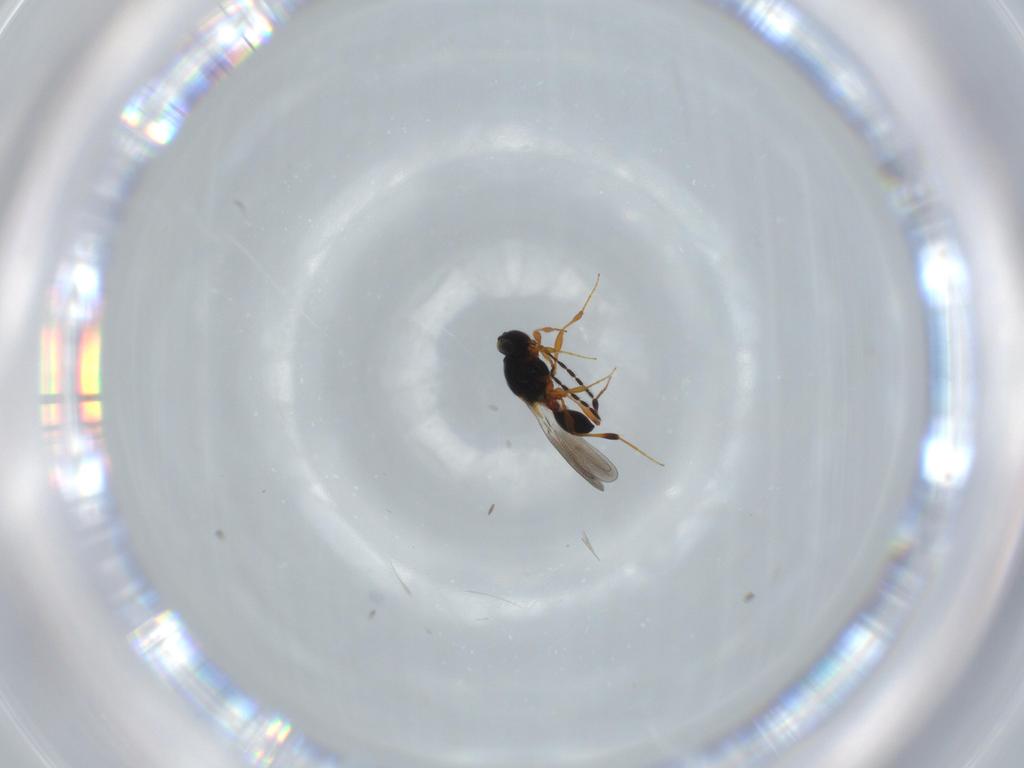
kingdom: Animalia
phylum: Arthropoda
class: Insecta
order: Hymenoptera
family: Platygastridae
